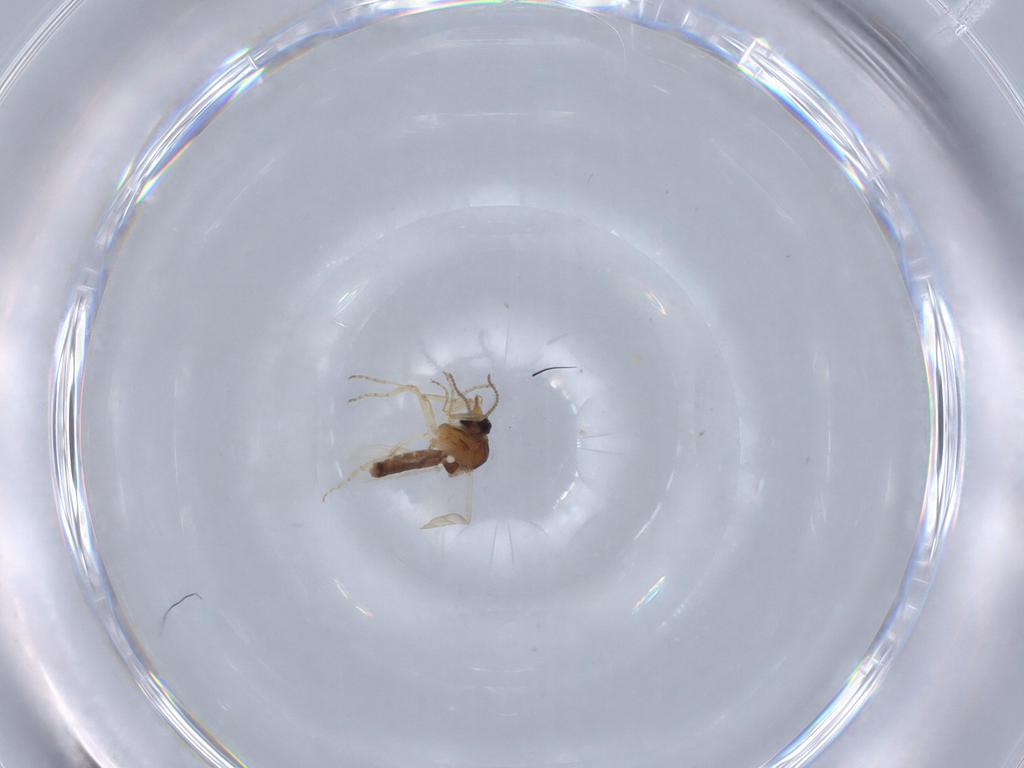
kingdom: Animalia
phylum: Arthropoda
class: Insecta
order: Diptera
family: Ceratopogonidae
